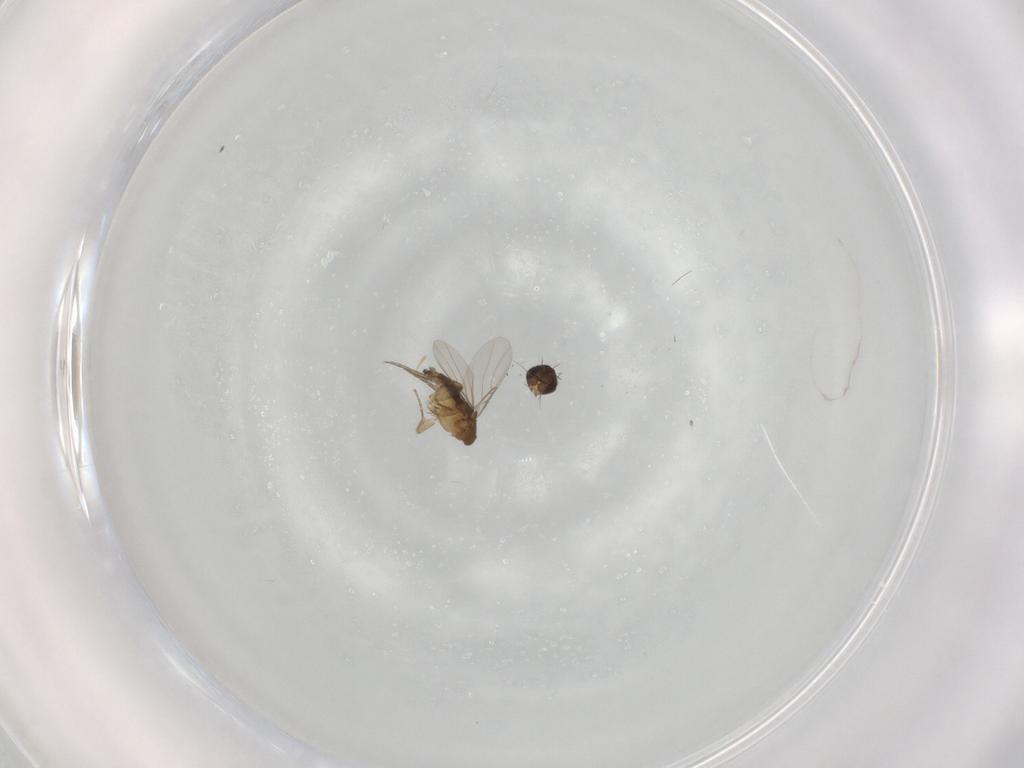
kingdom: Animalia
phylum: Arthropoda
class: Insecta
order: Diptera
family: Phoridae
